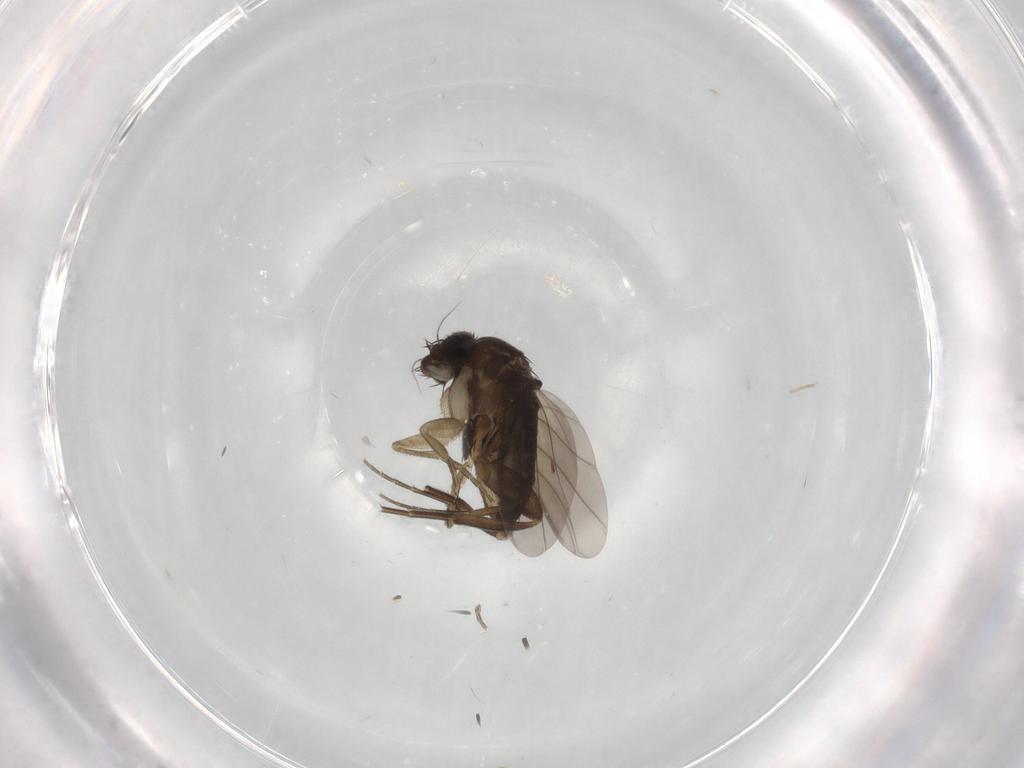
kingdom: Animalia
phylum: Arthropoda
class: Insecta
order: Diptera
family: Phoridae
